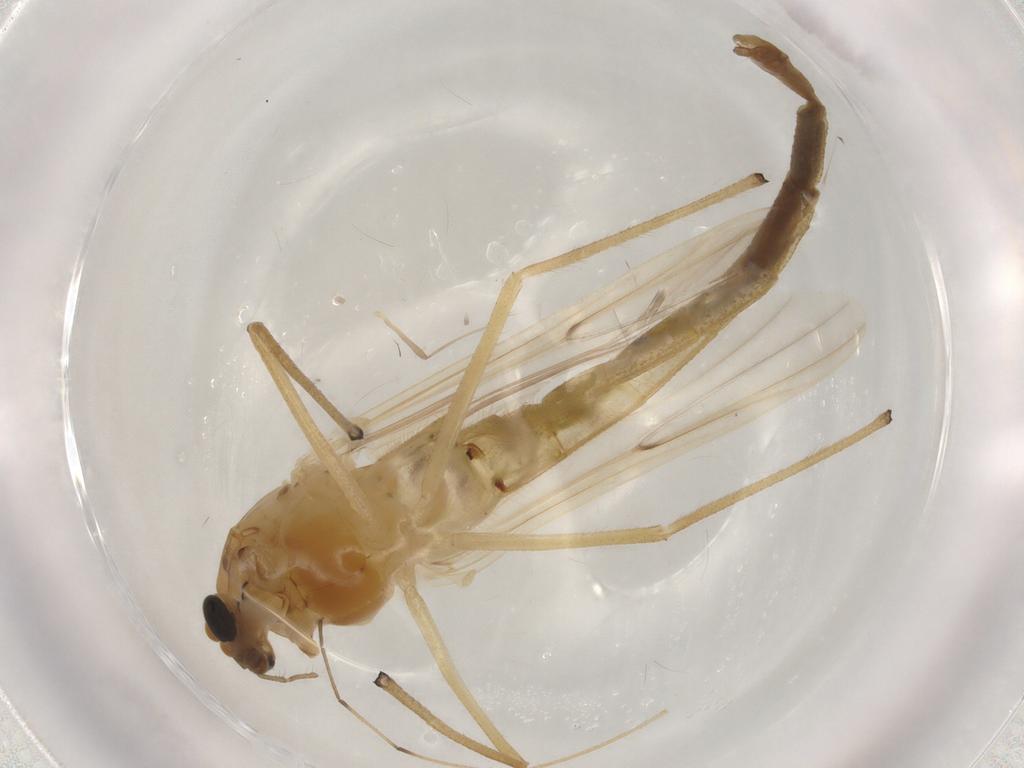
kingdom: Animalia
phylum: Arthropoda
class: Insecta
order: Diptera
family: Chironomidae
